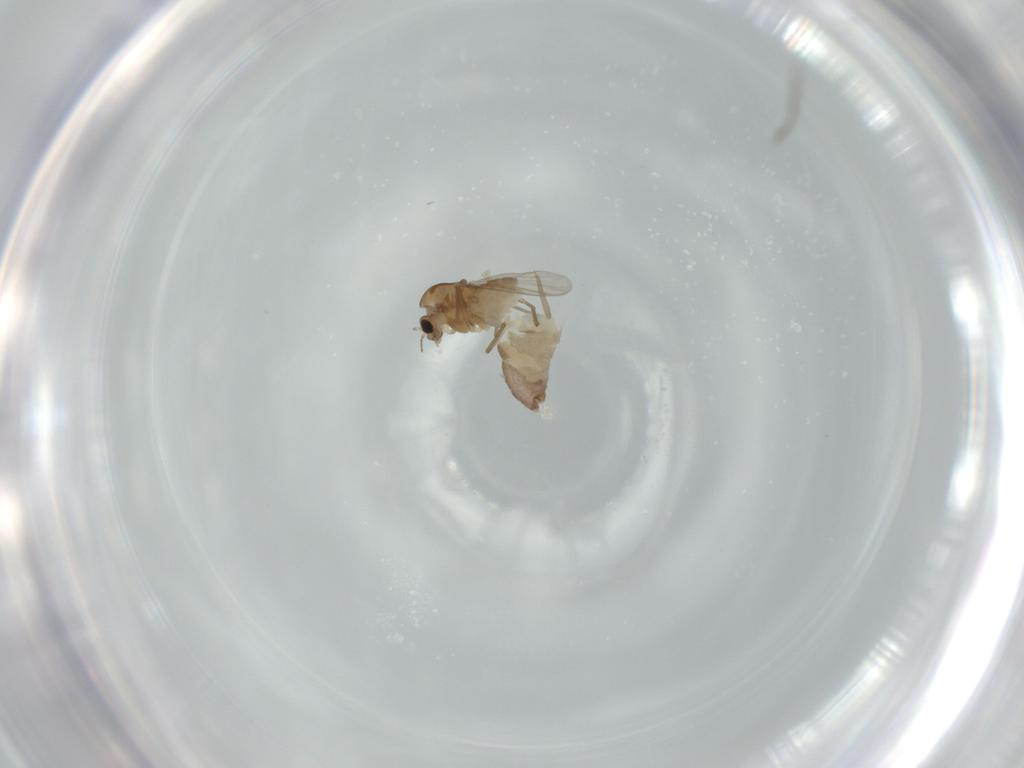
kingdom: Animalia
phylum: Arthropoda
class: Insecta
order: Diptera
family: Chironomidae
